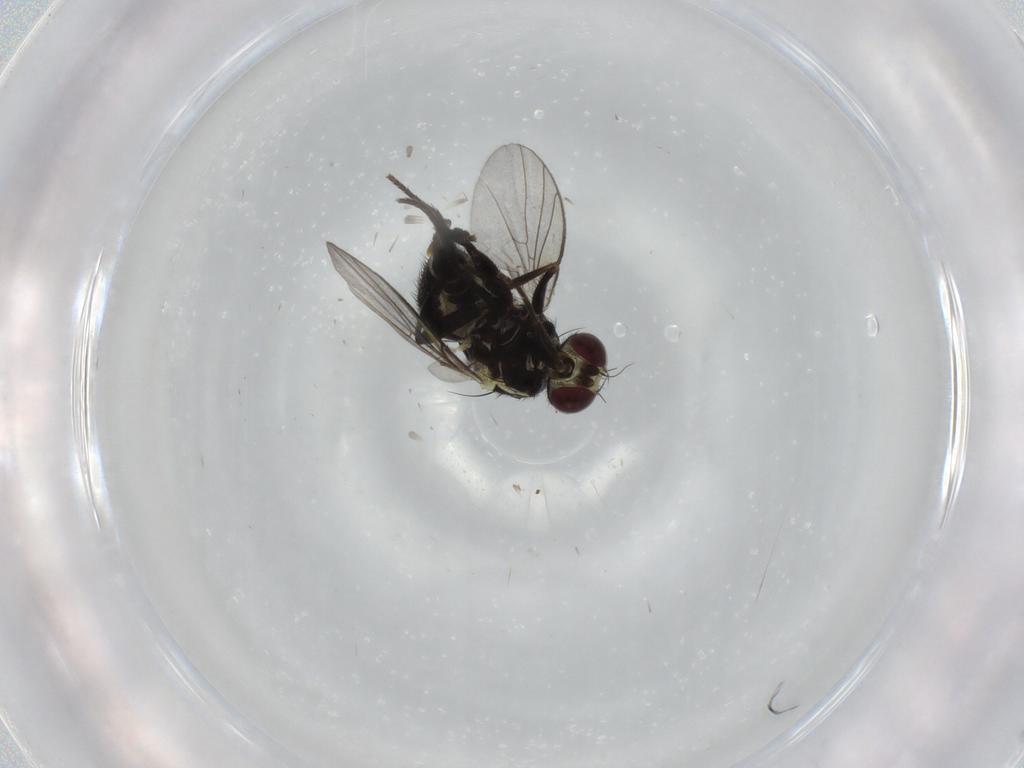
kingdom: Animalia
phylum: Arthropoda
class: Insecta
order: Diptera
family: Agromyzidae
